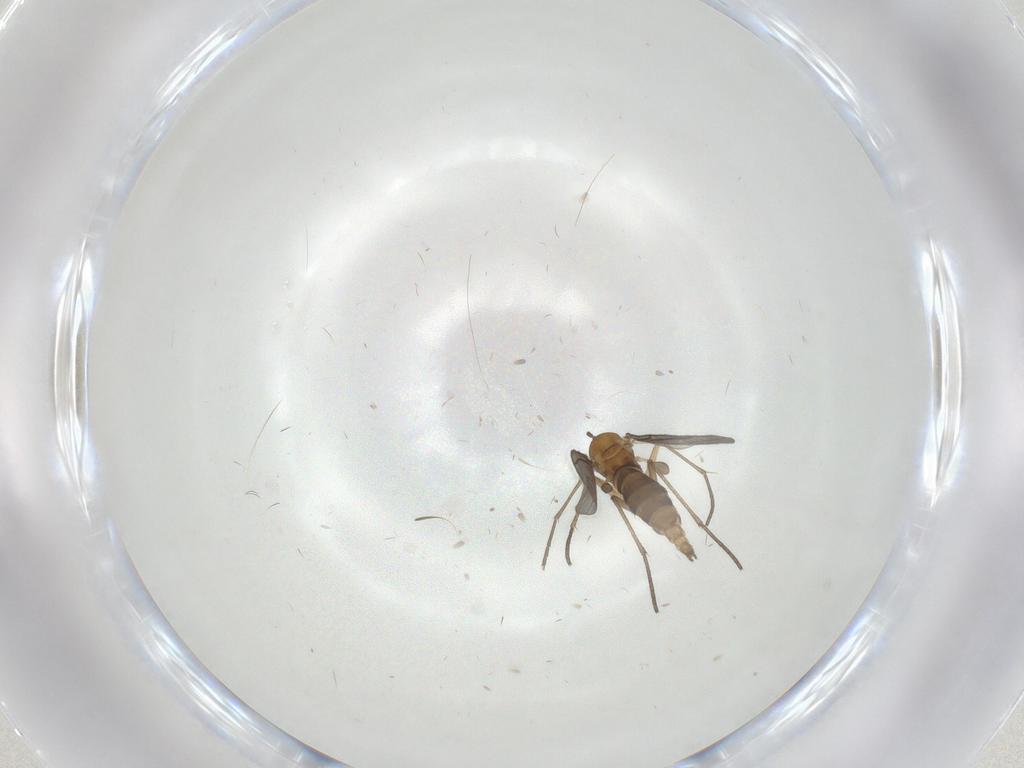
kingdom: Animalia
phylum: Arthropoda
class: Insecta
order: Diptera
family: Sciaridae
